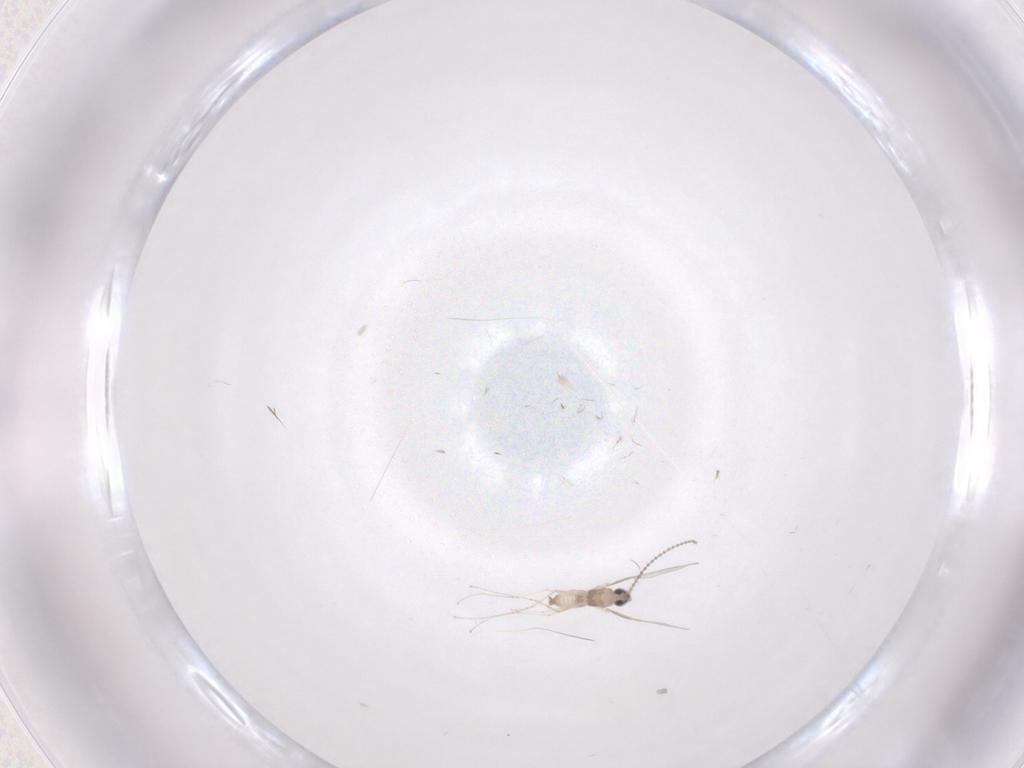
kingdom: Animalia
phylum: Arthropoda
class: Insecta
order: Diptera
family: Cecidomyiidae
